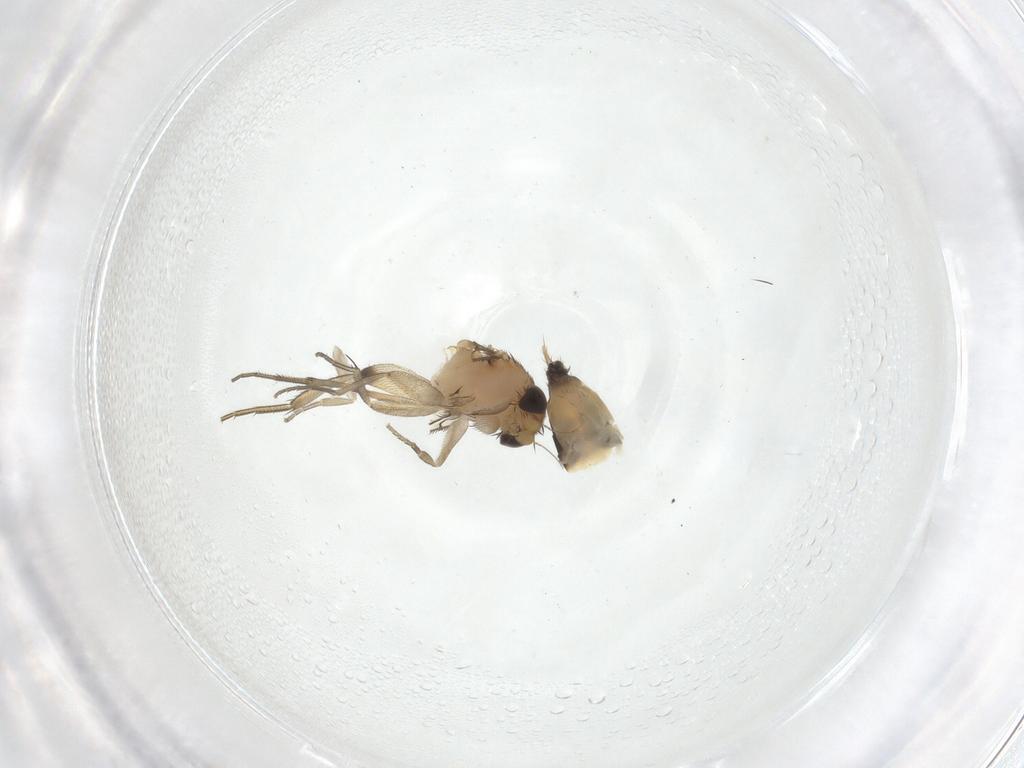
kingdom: Animalia
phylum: Arthropoda
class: Insecta
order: Diptera
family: Phoridae
